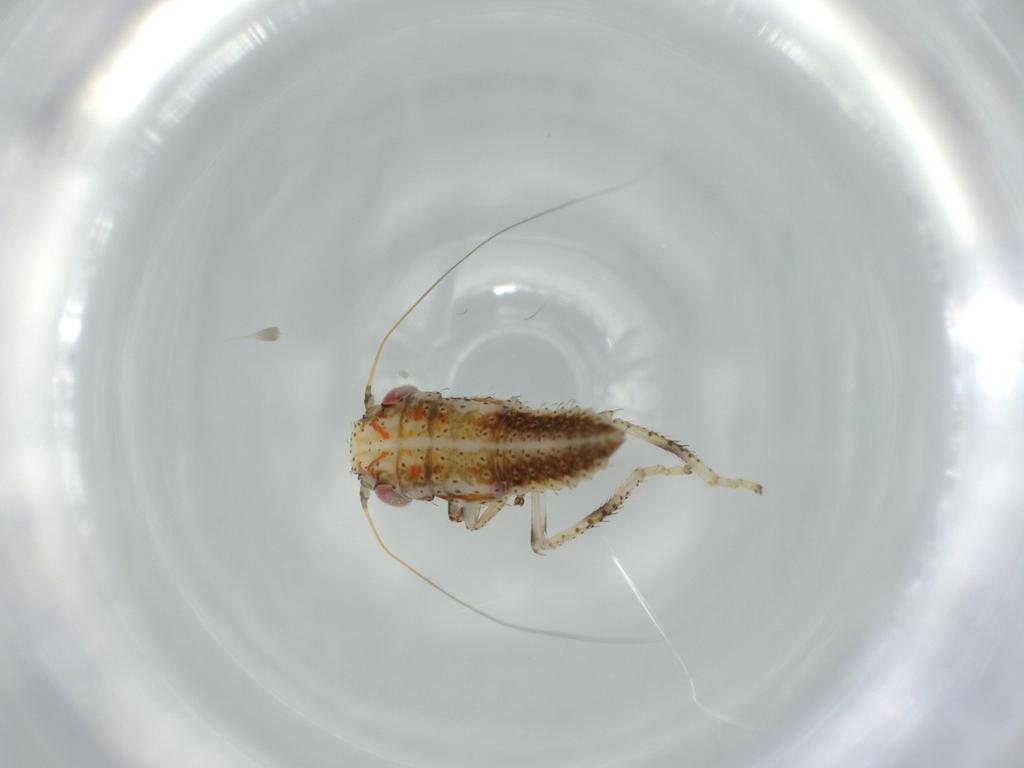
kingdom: Animalia
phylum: Arthropoda
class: Insecta
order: Hemiptera
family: Cicadellidae
